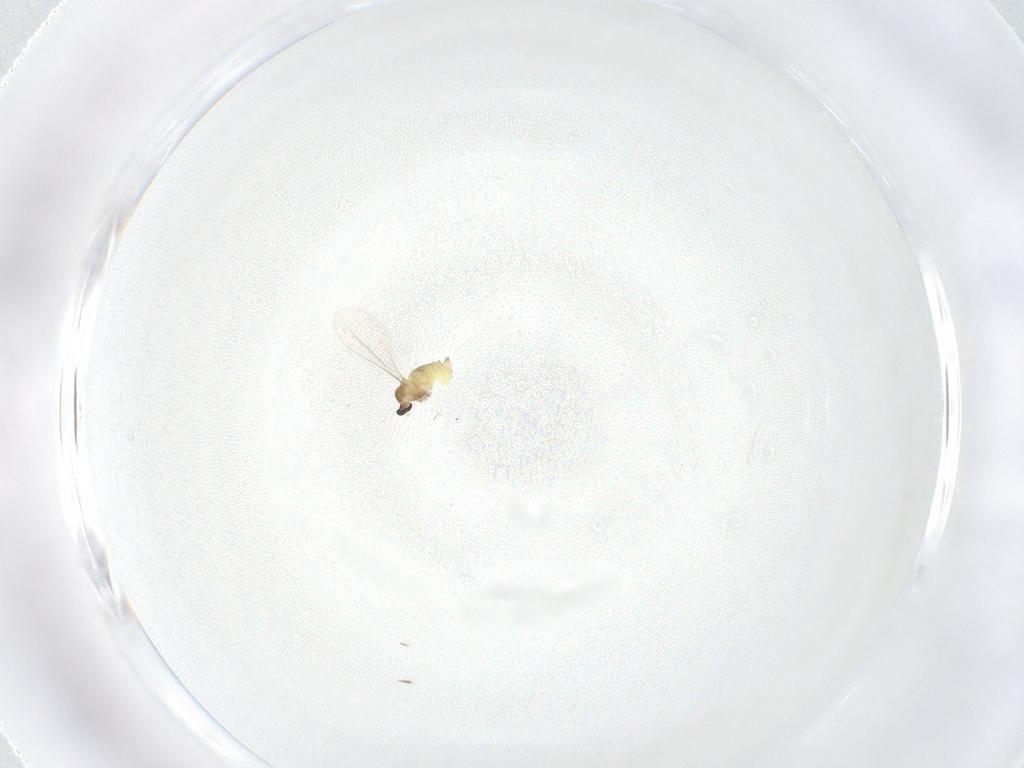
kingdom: Animalia
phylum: Arthropoda
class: Insecta
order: Diptera
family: Cecidomyiidae
